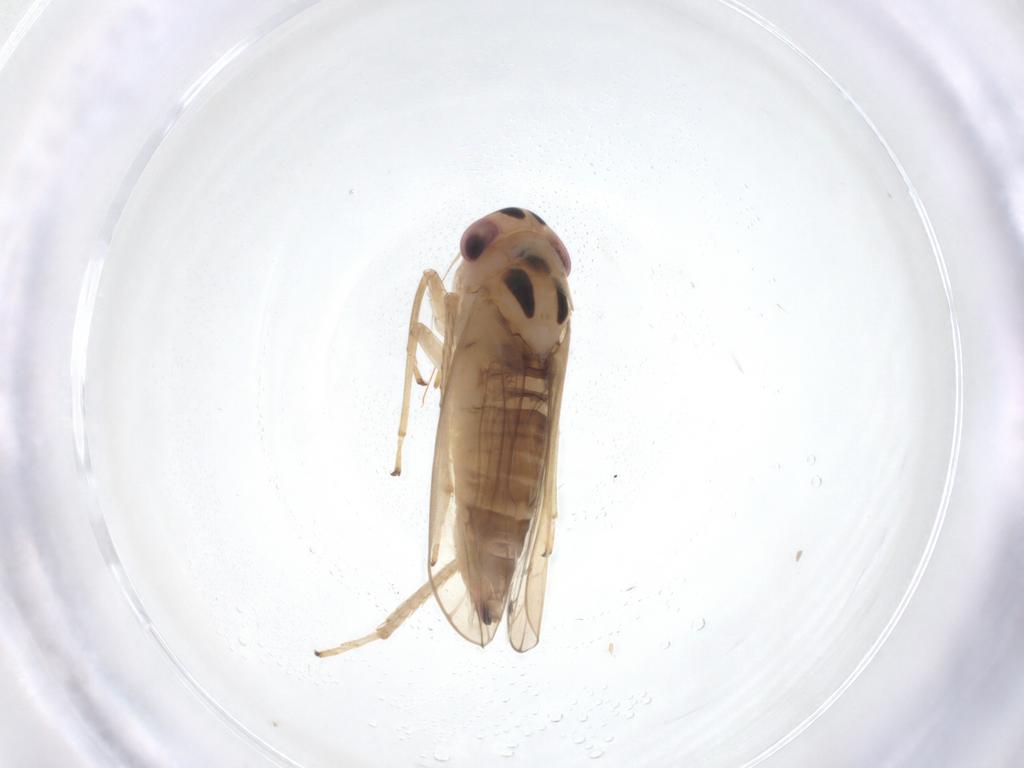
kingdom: Animalia
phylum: Arthropoda
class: Insecta
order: Hemiptera
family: Cicadellidae
